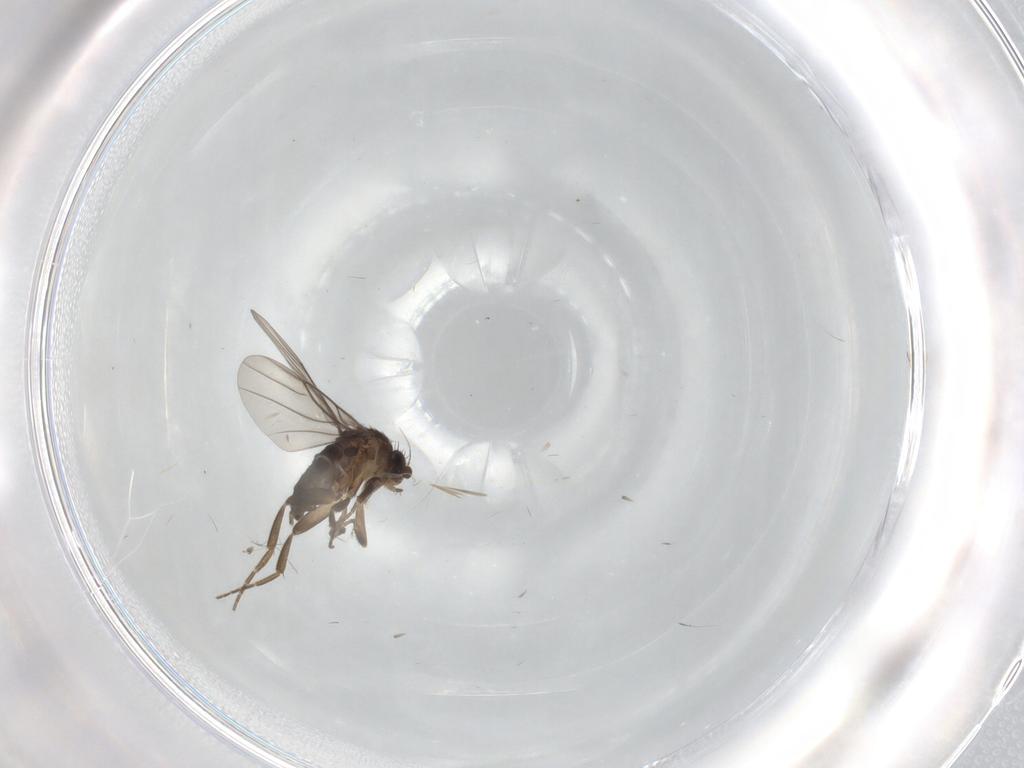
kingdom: Animalia
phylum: Arthropoda
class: Insecta
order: Diptera
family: Phoridae
